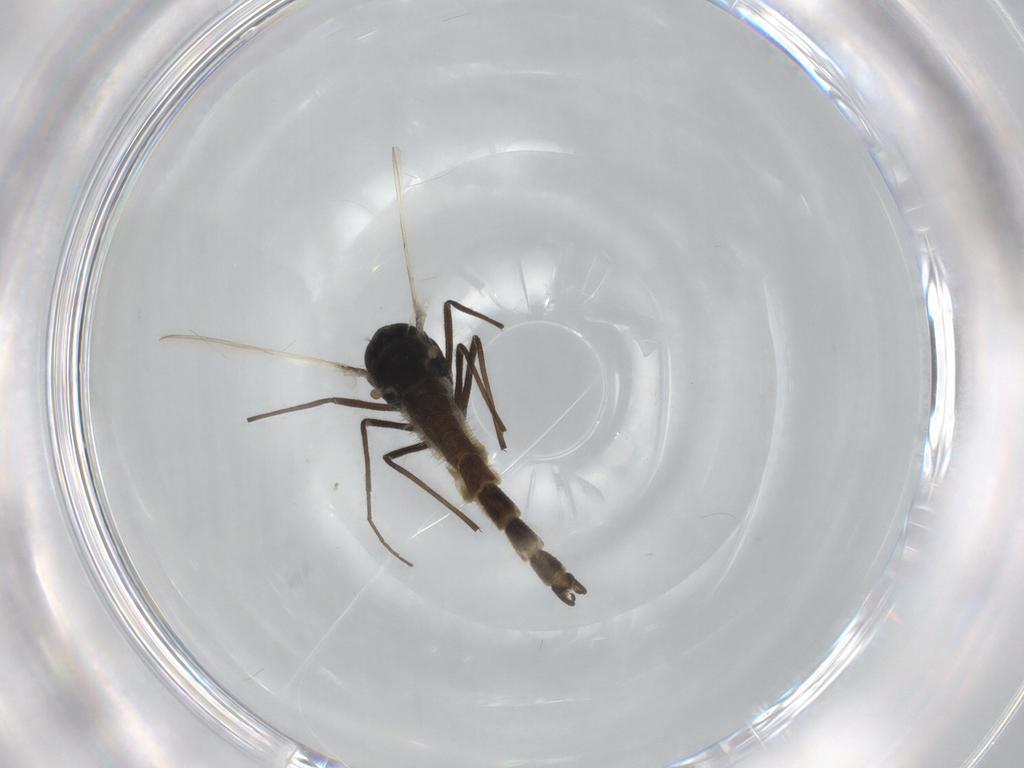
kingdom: Animalia
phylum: Arthropoda
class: Insecta
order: Diptera
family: Chironomidae
